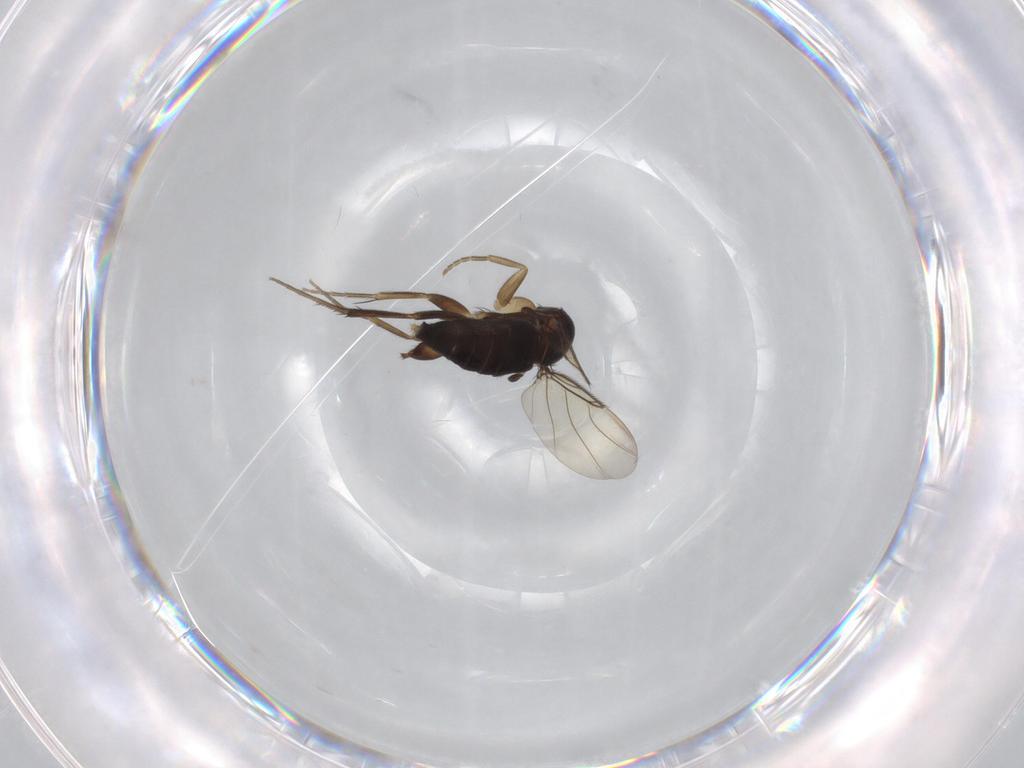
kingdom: Animalia
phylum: Arthropoda
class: Insecta
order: Diptera
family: Phoridae
